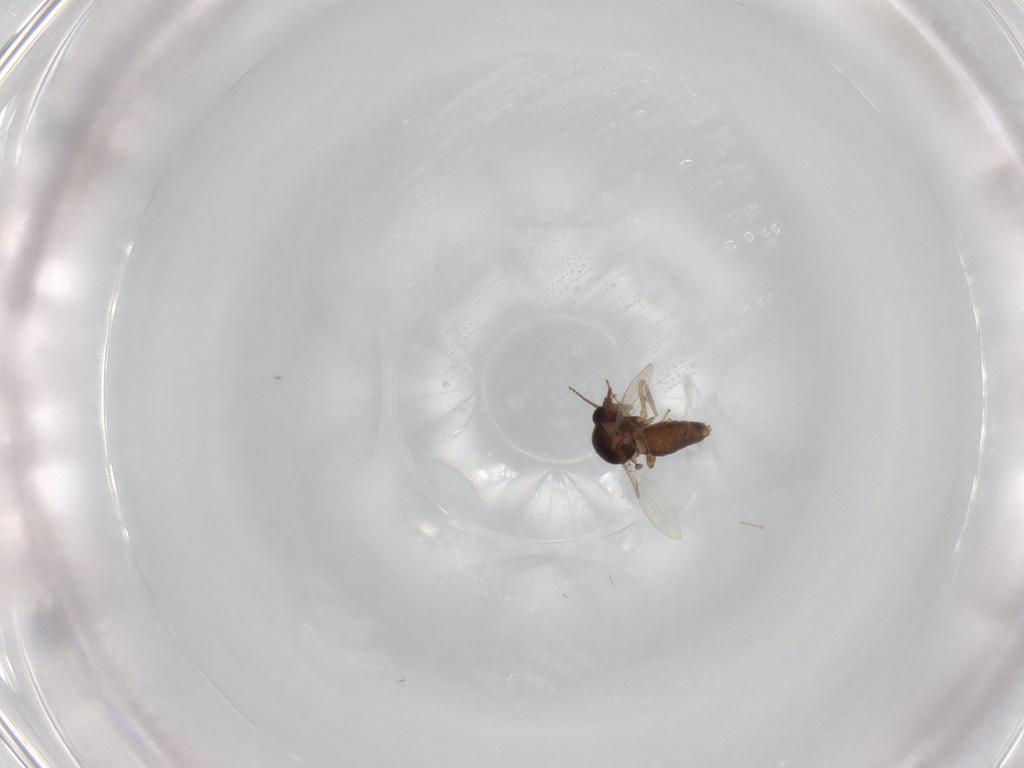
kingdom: Animalia
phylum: Arthropoda
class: Insecta
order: Diptera
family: Ceratopogonidae
